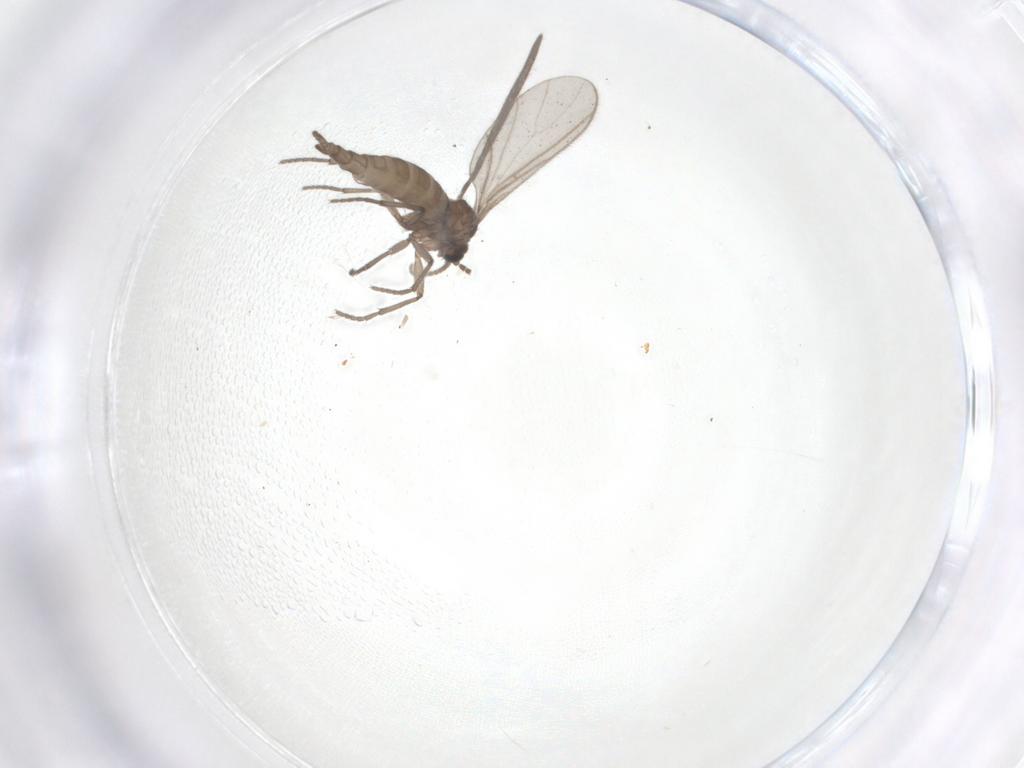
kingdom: Animalia
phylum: Arthropoda
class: Insecta
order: Diptera
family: Sciaridae
